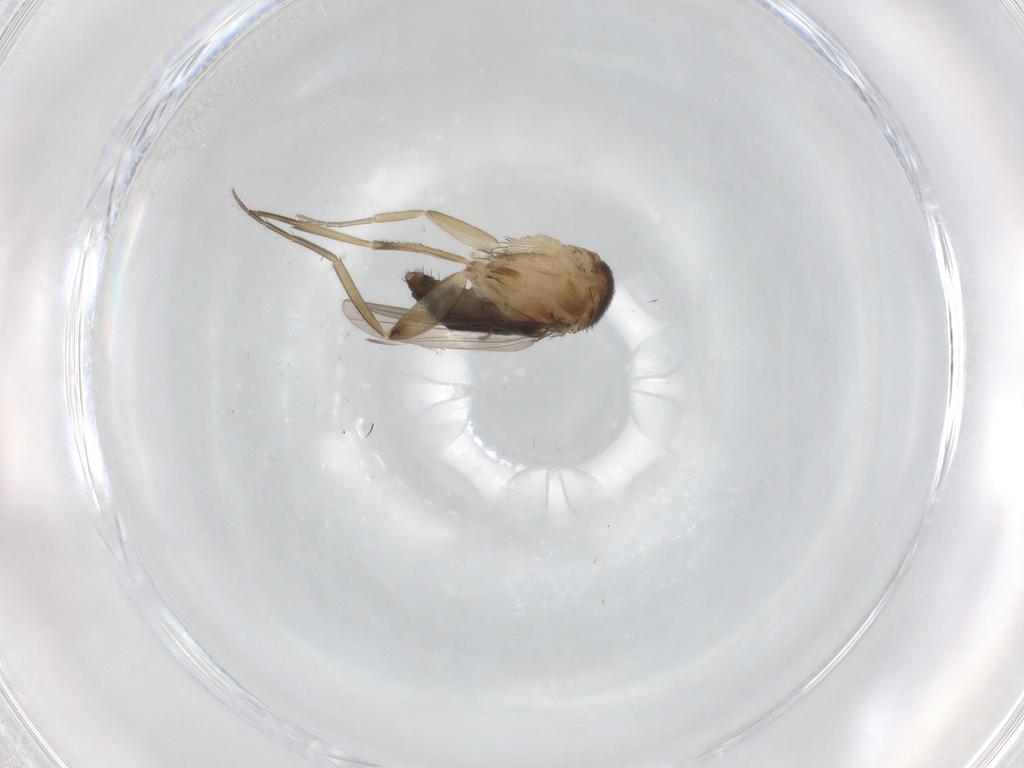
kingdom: Animalia
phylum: Arthropoda
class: Insecta
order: Diptera
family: Phoridae
